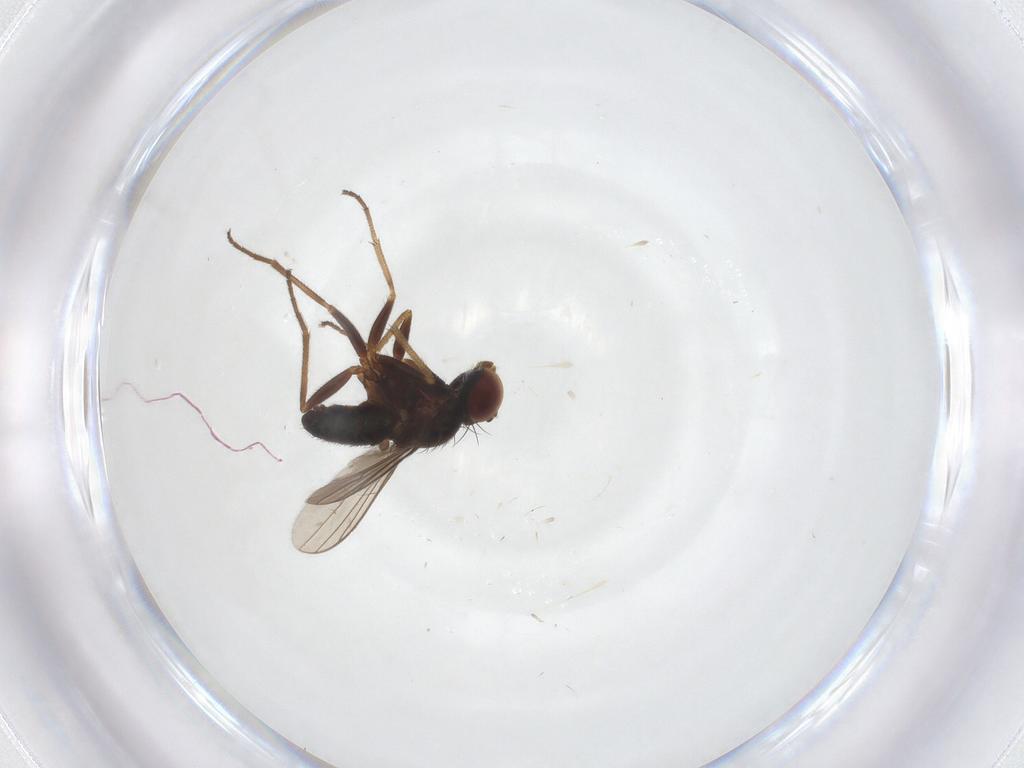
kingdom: Animalia
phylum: Arthropoda
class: Insecta
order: Diptera
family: Dolichopodidae
